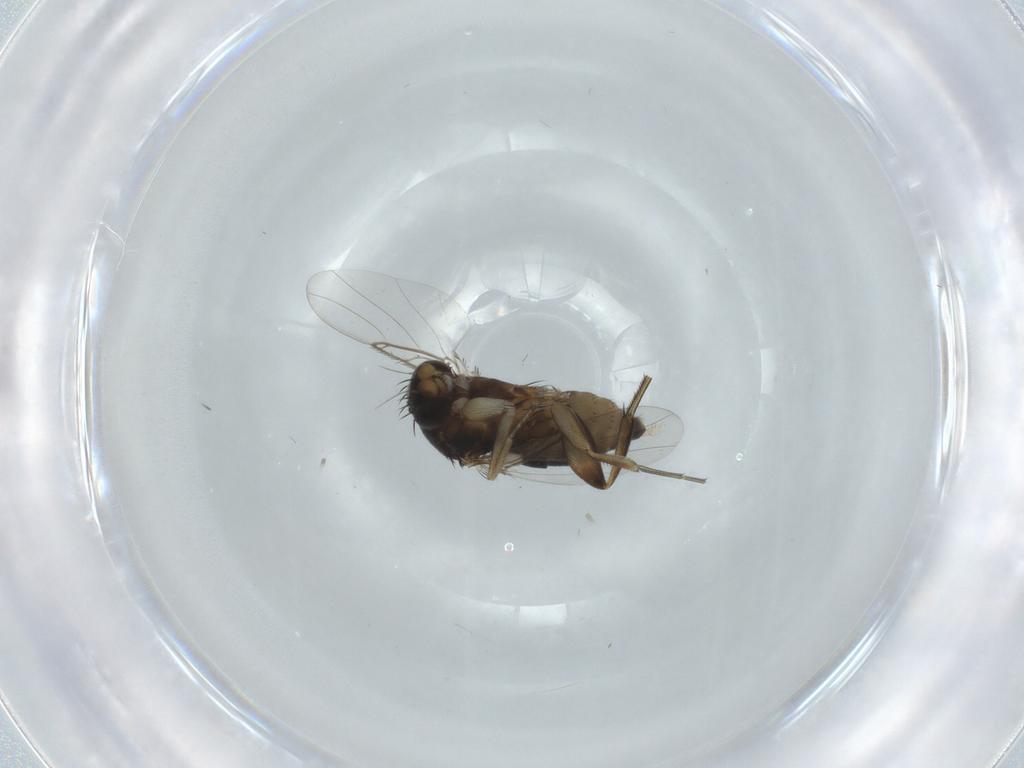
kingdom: Animalia
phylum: Arthropoda
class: Insecta
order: Diptera
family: Phoridae
